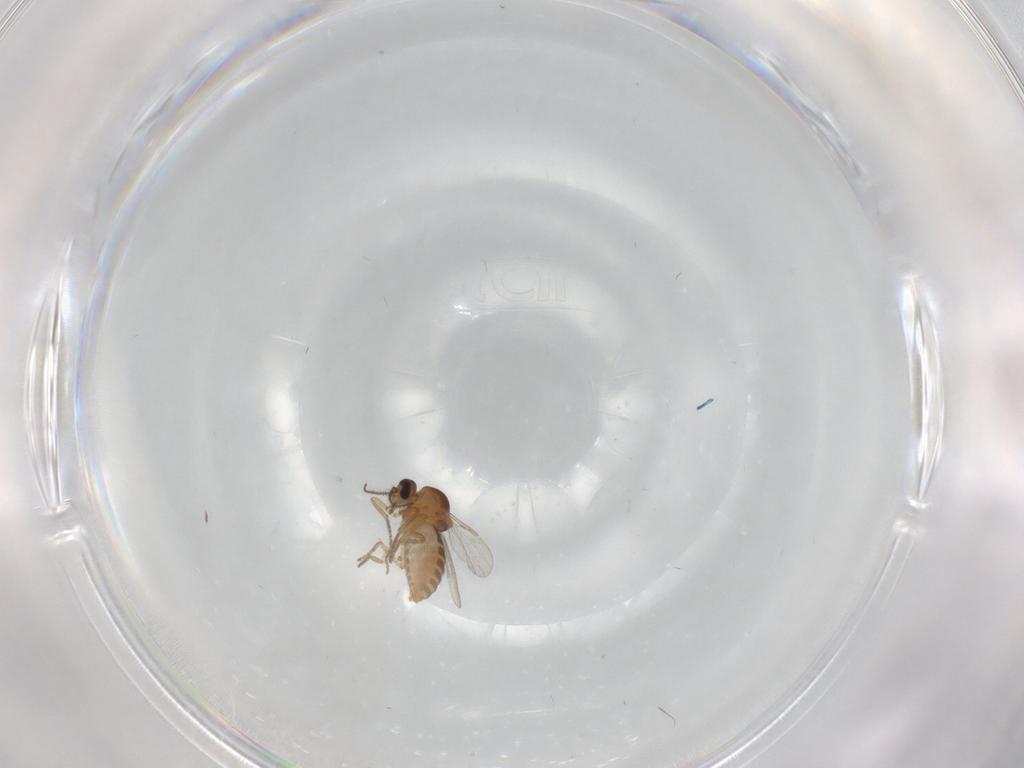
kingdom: Animalia
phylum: Arthropoda
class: Insecta
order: Diptera
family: Ceratopogonidae
